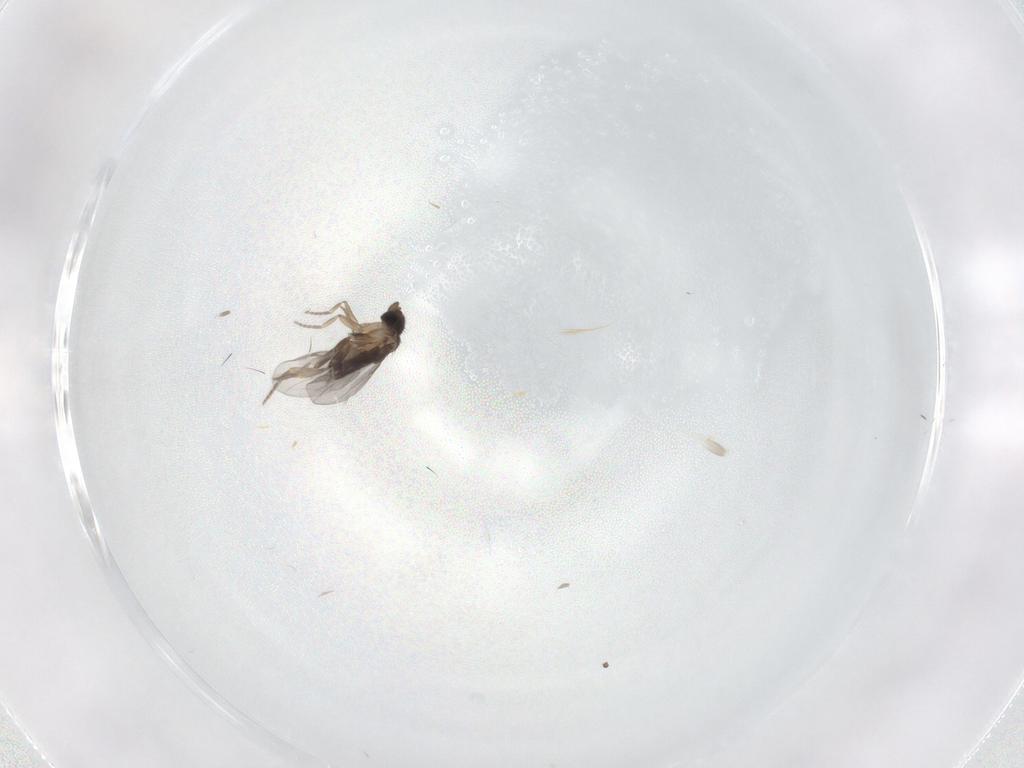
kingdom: Animalia
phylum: Arthropoda
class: Insecta
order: Diptera
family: Mycetophilidae
